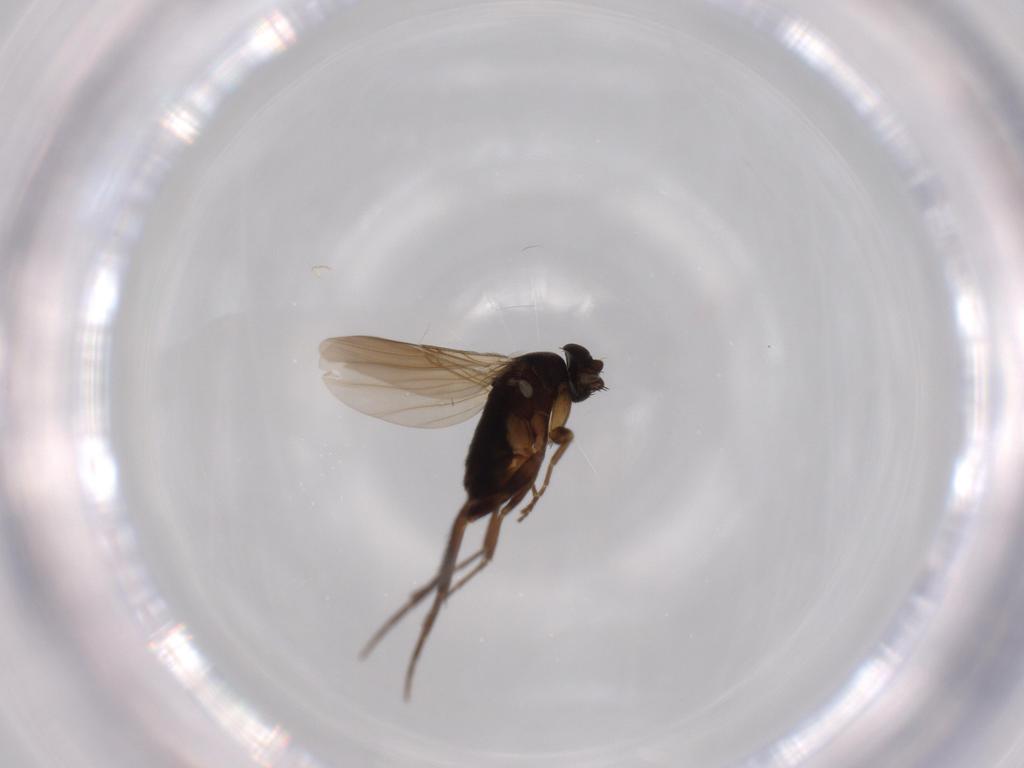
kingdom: Animalia
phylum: Arthropoda
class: Insecta
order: Diptera
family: Phoridae
